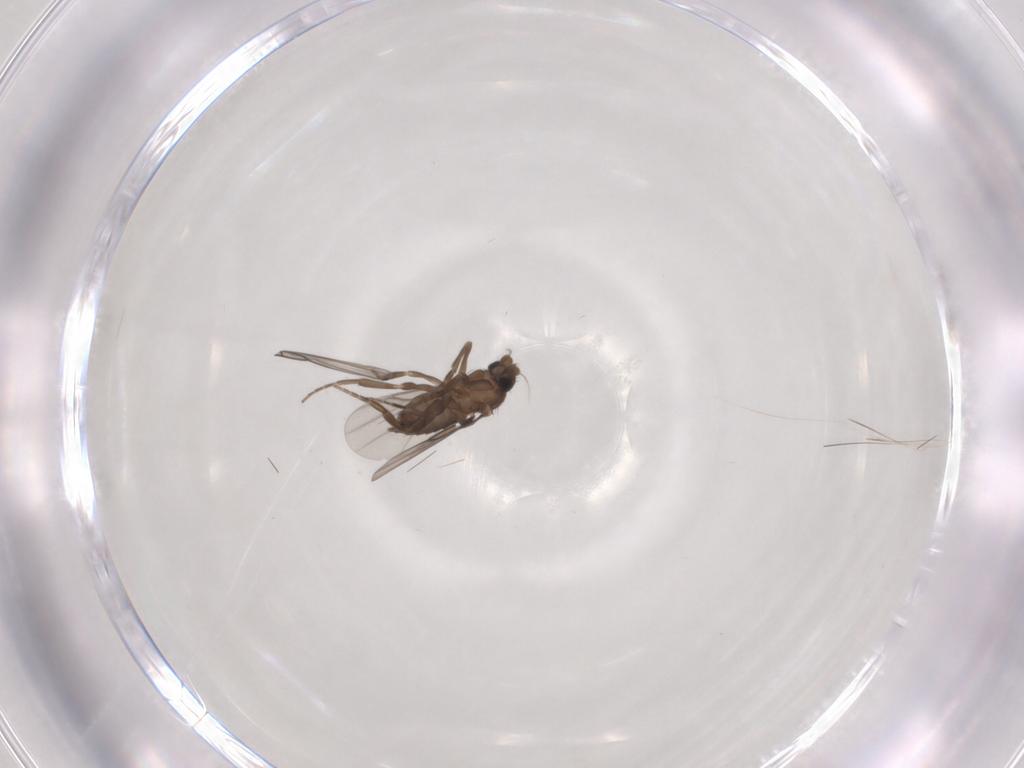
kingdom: Animalia
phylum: Arthropoda
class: Insecta
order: Diptera
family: Phoridae
